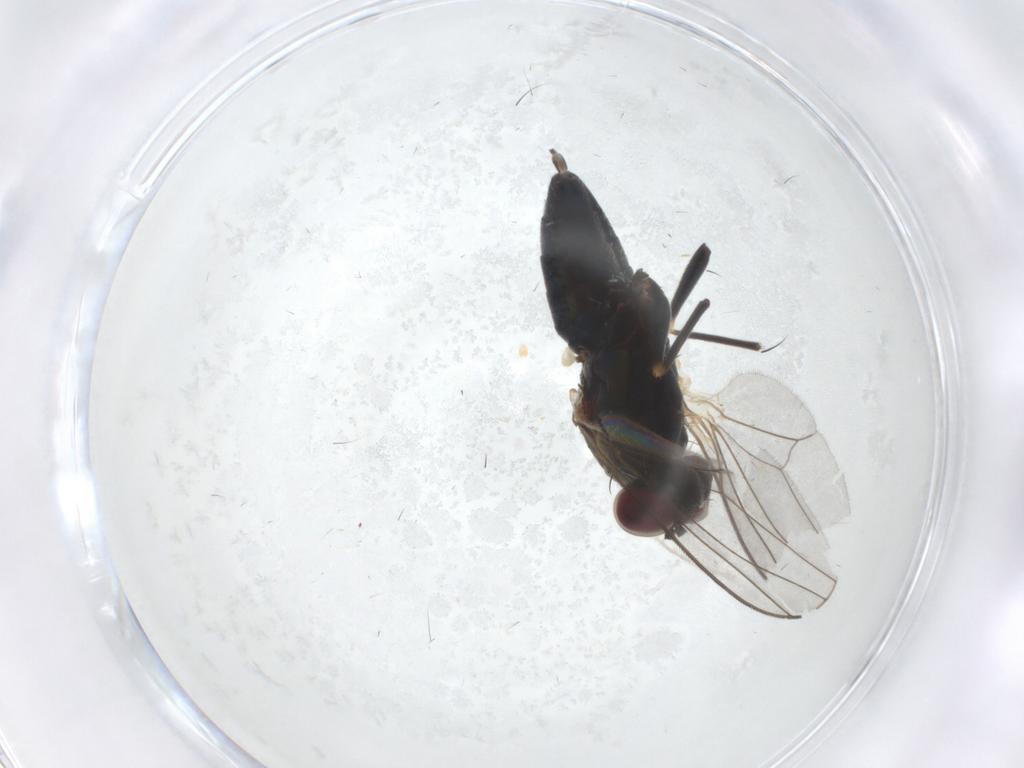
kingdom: Animalia
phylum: Arthropoda
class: Insecta
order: Diptera
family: Dolichopodidae
